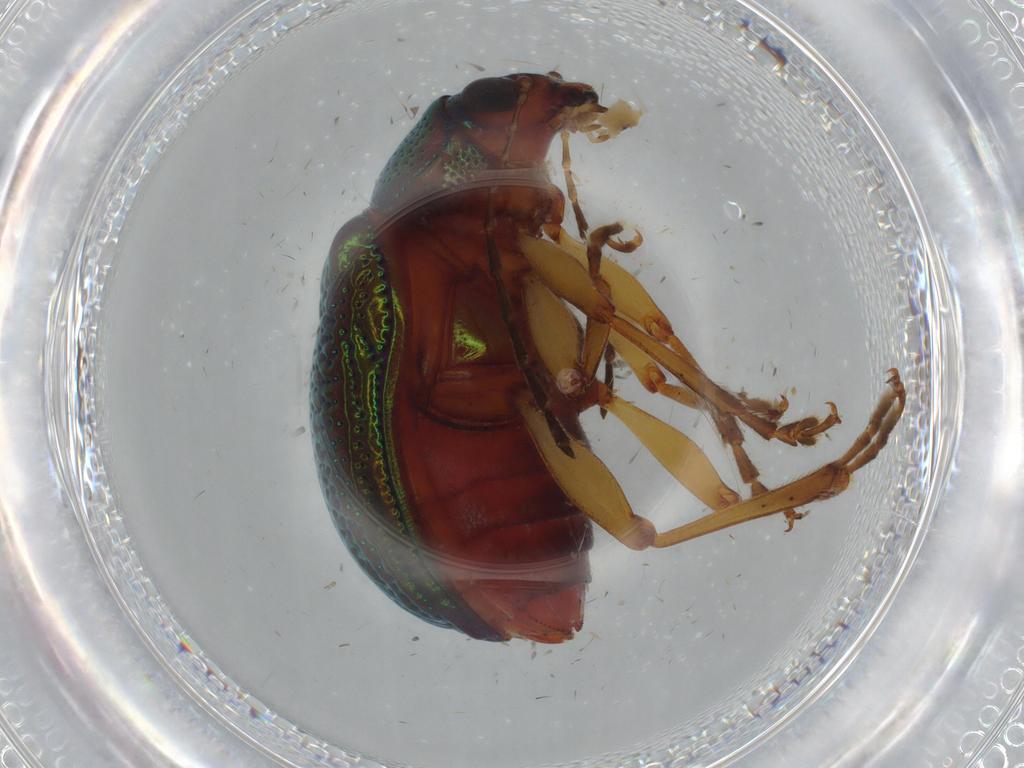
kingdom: Animalia
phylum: Arthropoda
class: Insecta
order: Coleoptera
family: Chrysomelidae
